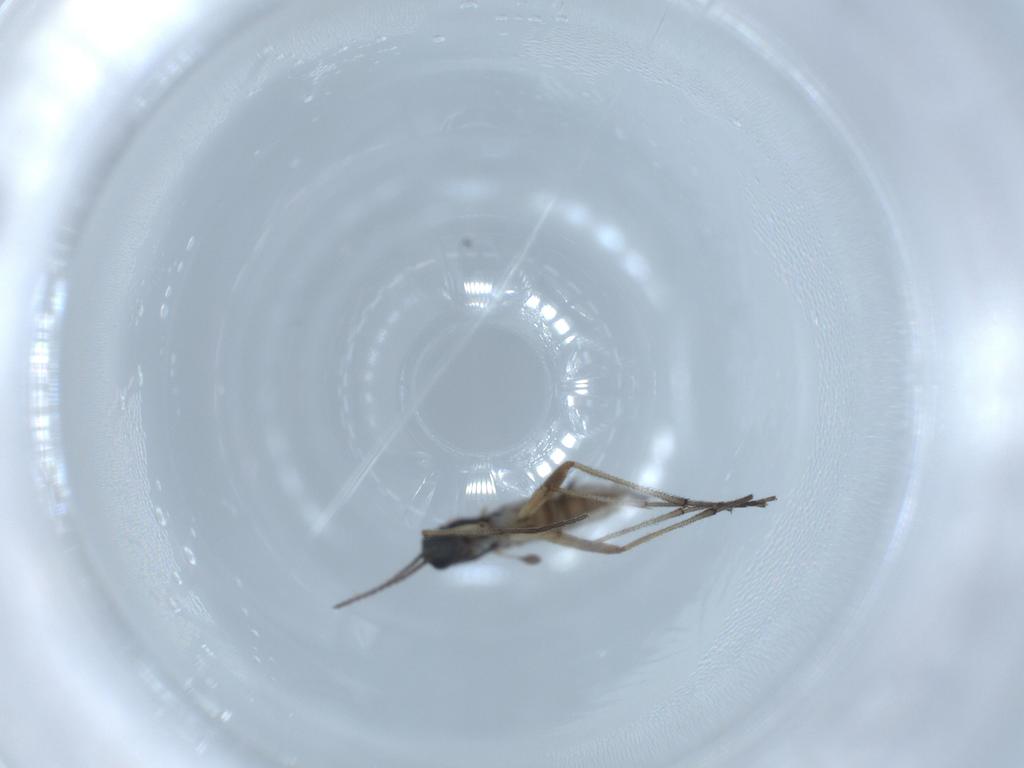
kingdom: Animalia
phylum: Arthropoda
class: Insecta
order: Diptera
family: Sciaridae
